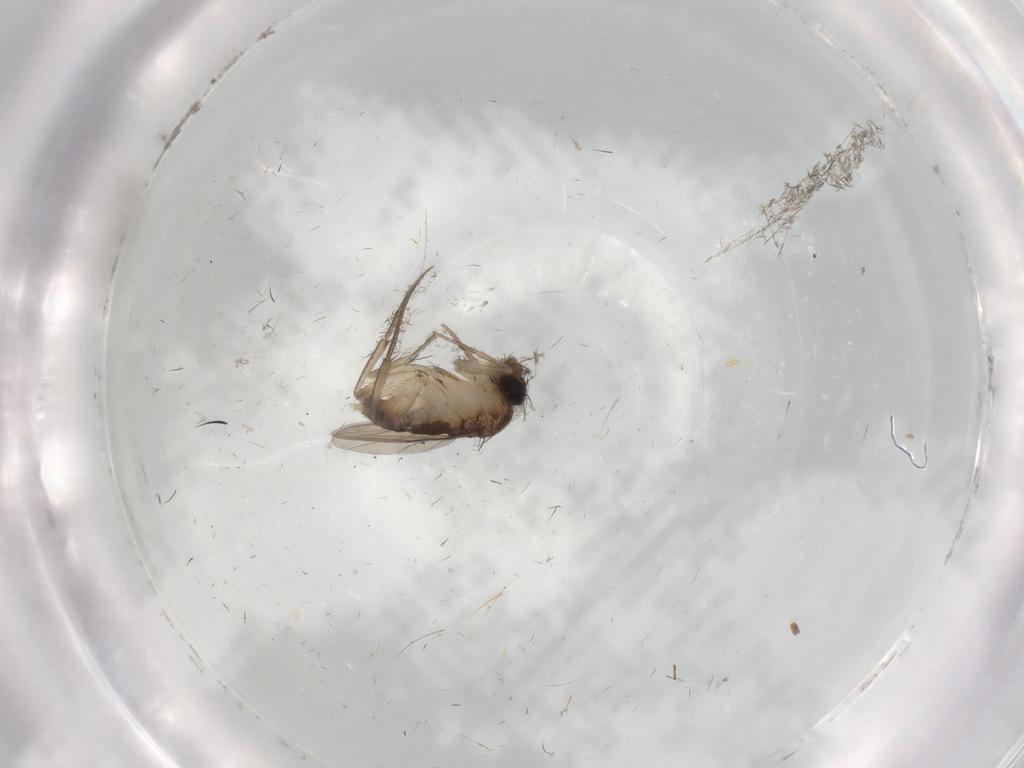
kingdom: Animalia
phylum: Arthropoda
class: Insecta
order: Diptera
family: Phoridae
